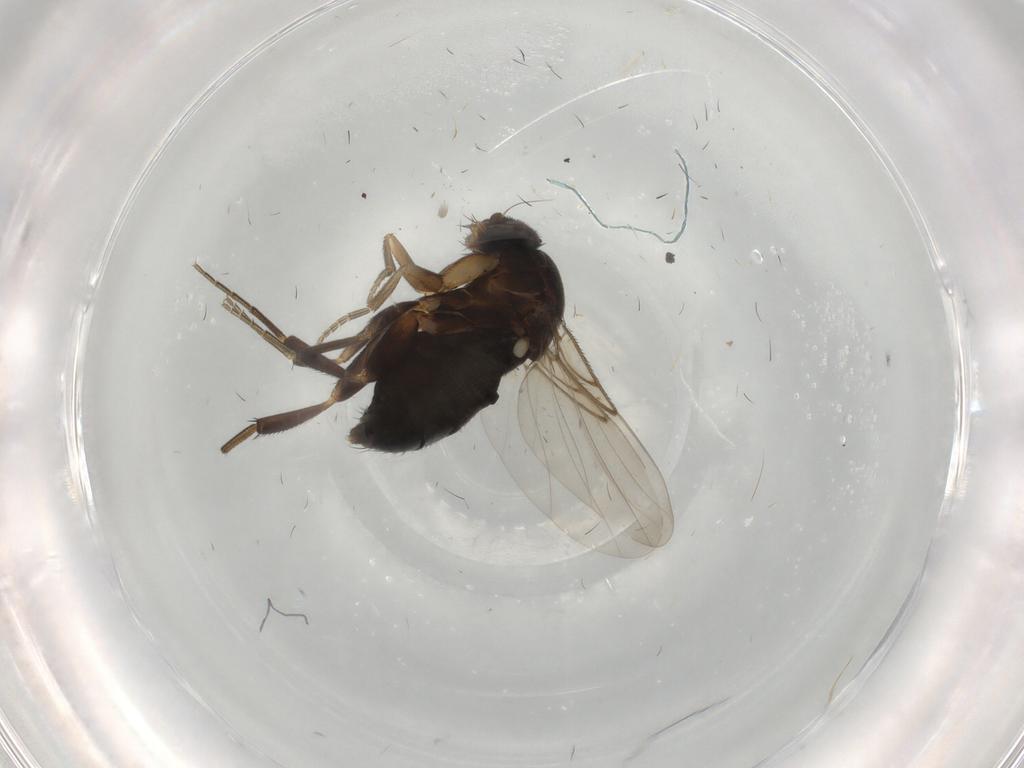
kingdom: Animalia
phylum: Arthropoda
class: Insecta
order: Diptera
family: Phoridae
